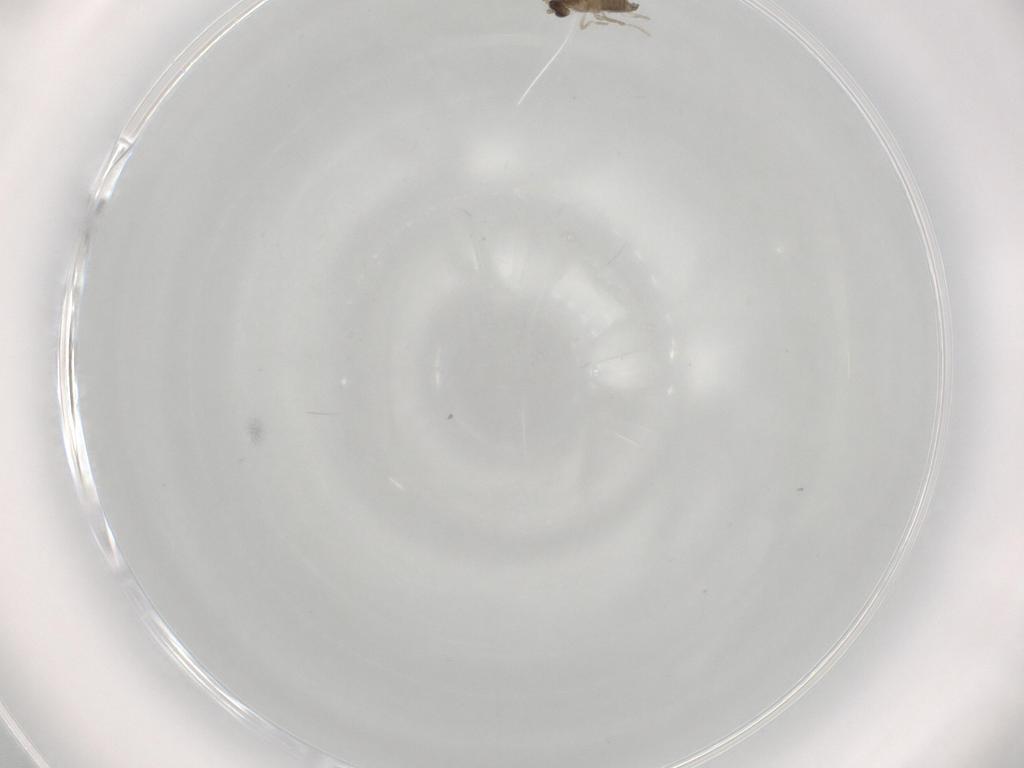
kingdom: Animalia
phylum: Arthropoda
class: Insecta
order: Diptera
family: Cecidomyiidae
